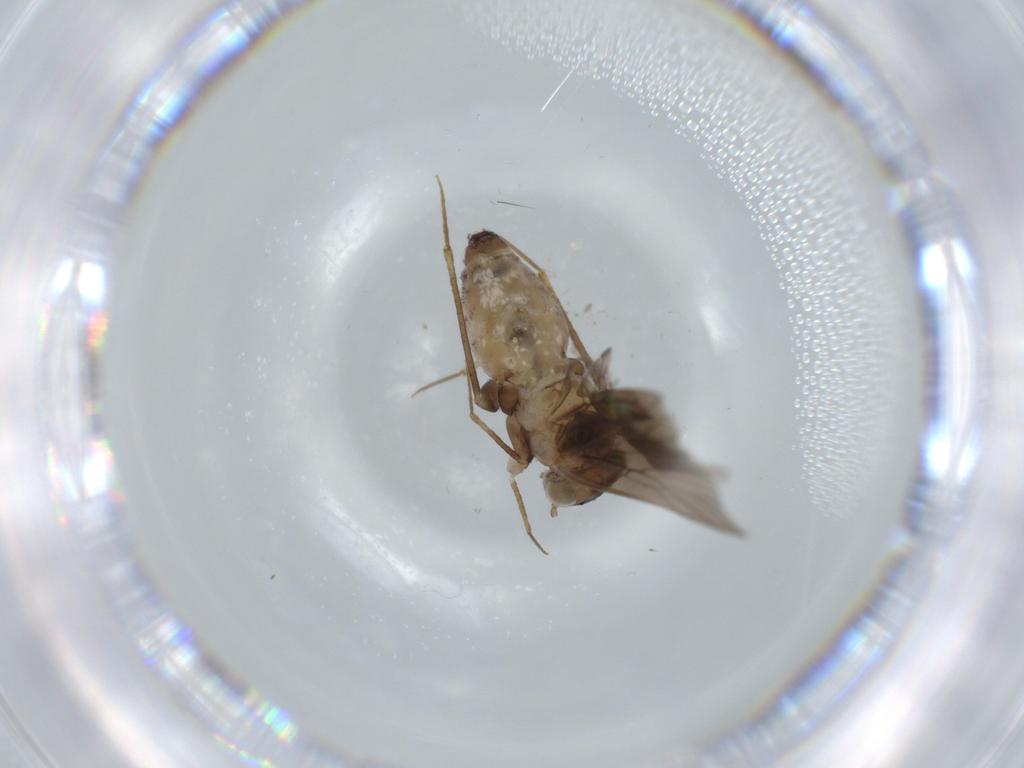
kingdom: Animalia
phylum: Arthropoda
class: Insecta
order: Psocodea
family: Lepidopsocidae
